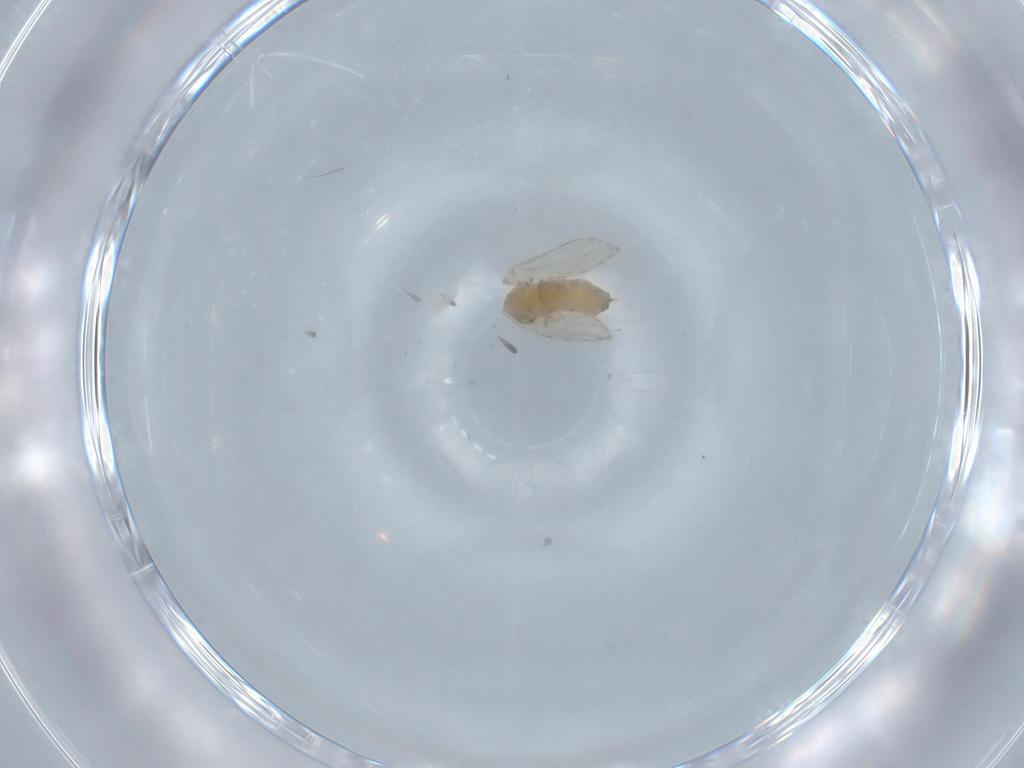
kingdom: Animalia
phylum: Arthropoda
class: Insecta
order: Diptera
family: Psychodidae
